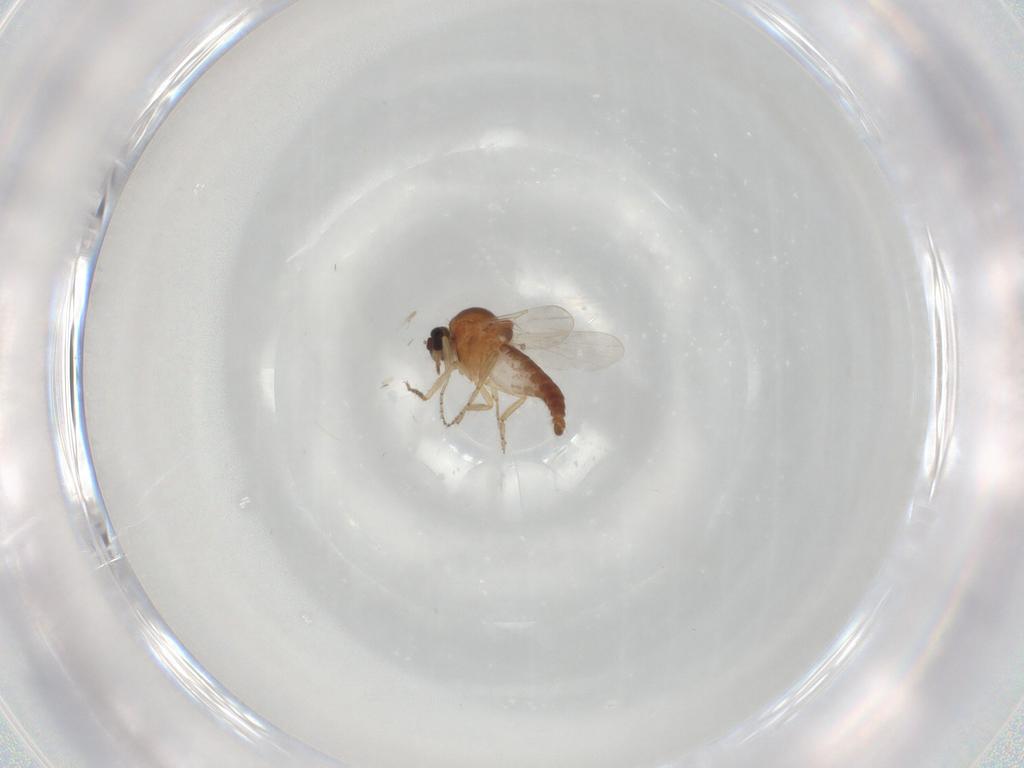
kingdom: Animalia
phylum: Arthropoda
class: Insecta
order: Diptera
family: Ceratopogonidae
